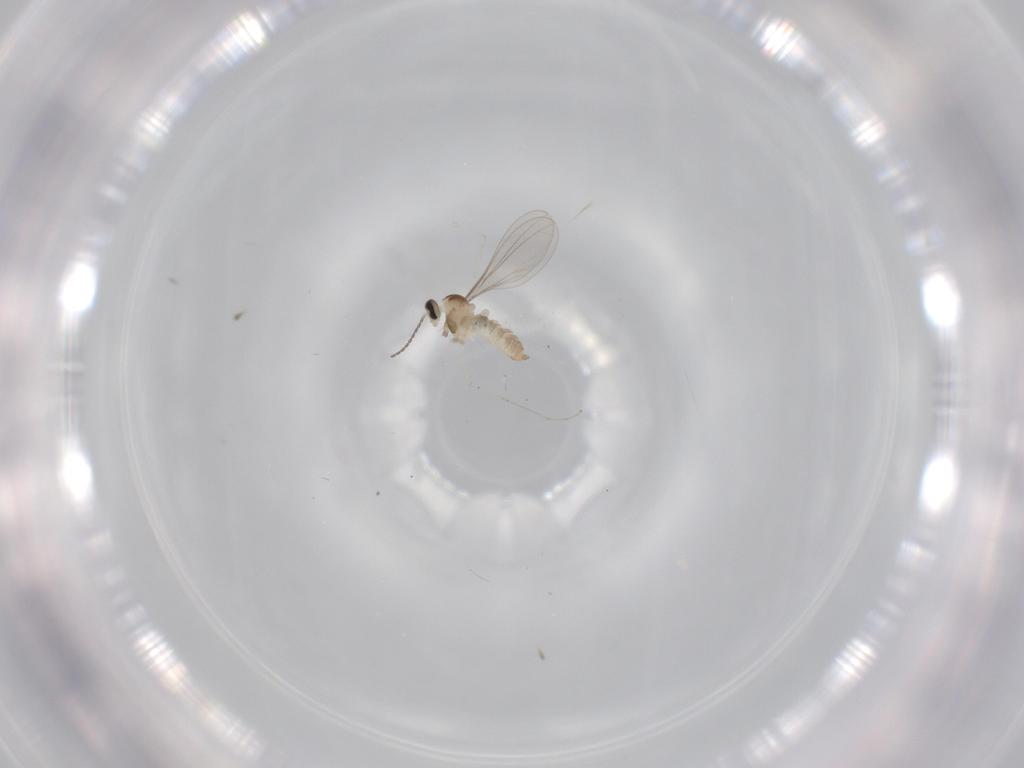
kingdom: Animalia
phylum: Arthropoda
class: Insecta
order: Diptera
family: Cecidomyiidae
